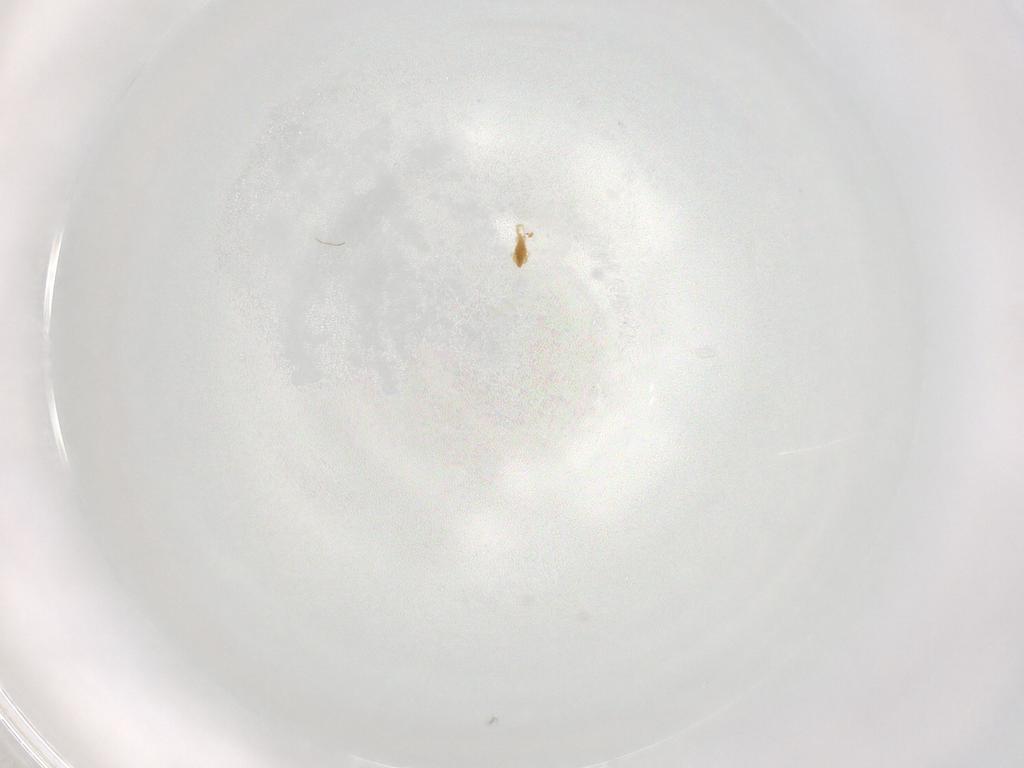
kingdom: Animalia
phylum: Arthropoda
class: Arachnida
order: Trombidiformes
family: Eupodidae
